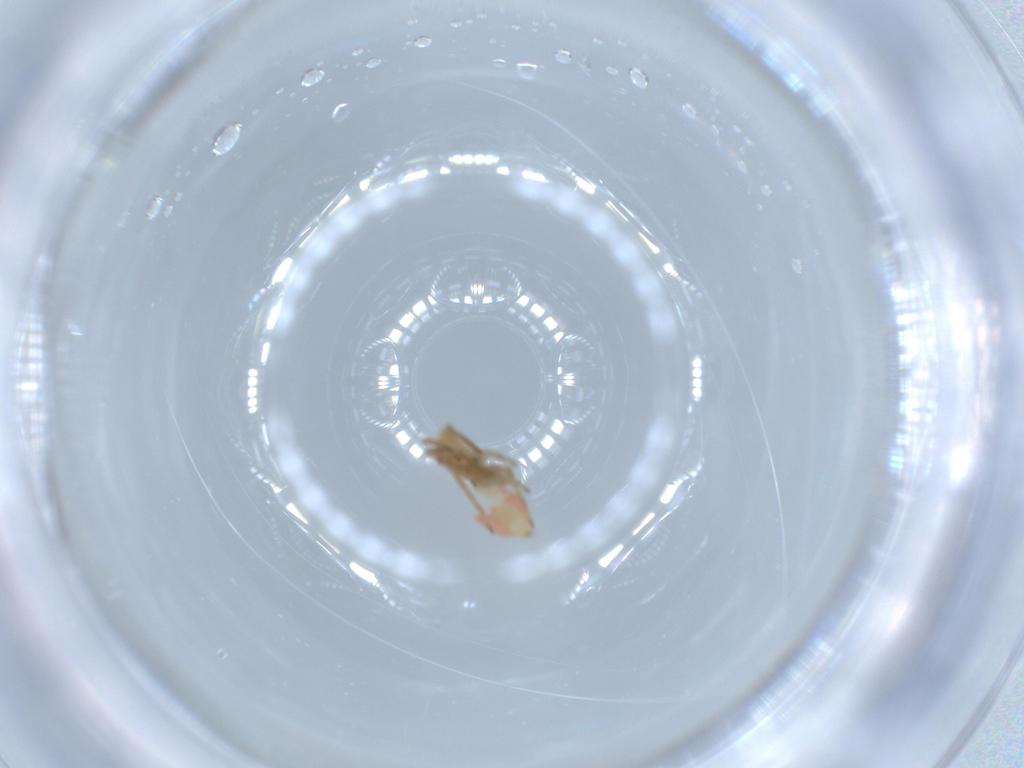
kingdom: Animalia
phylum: Arthropoda
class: Insecta
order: Hemiptera
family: Miridae
